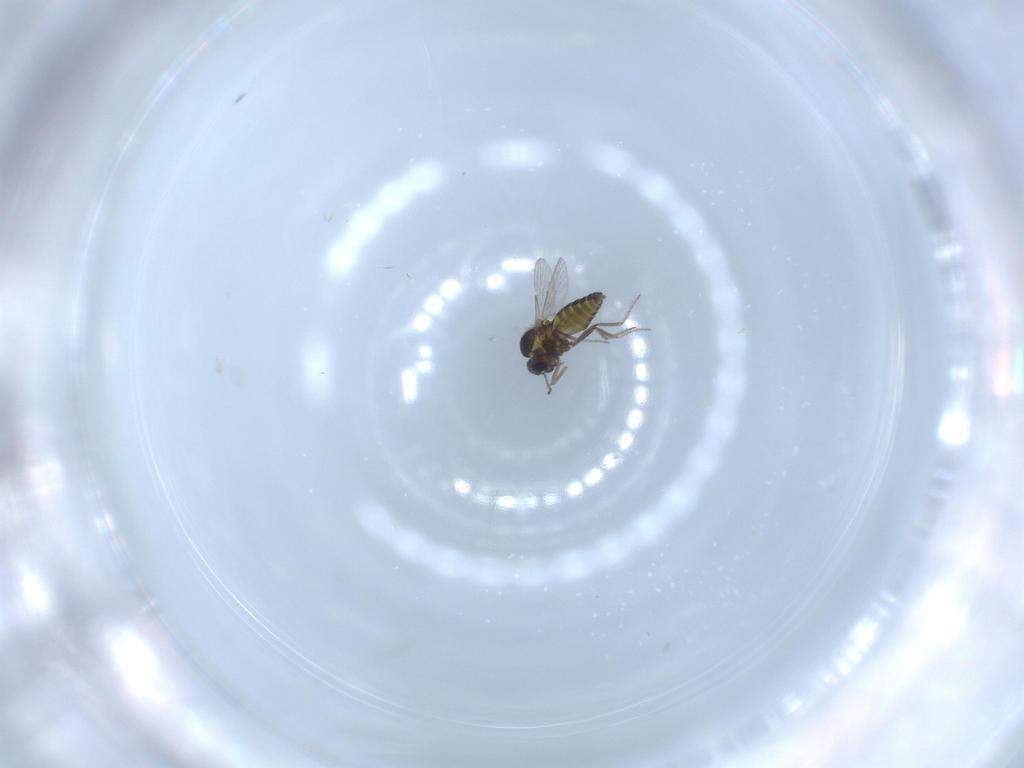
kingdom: Animalia
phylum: Arthropoda
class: Insecta
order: Diptera
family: Ceratopogonidae
